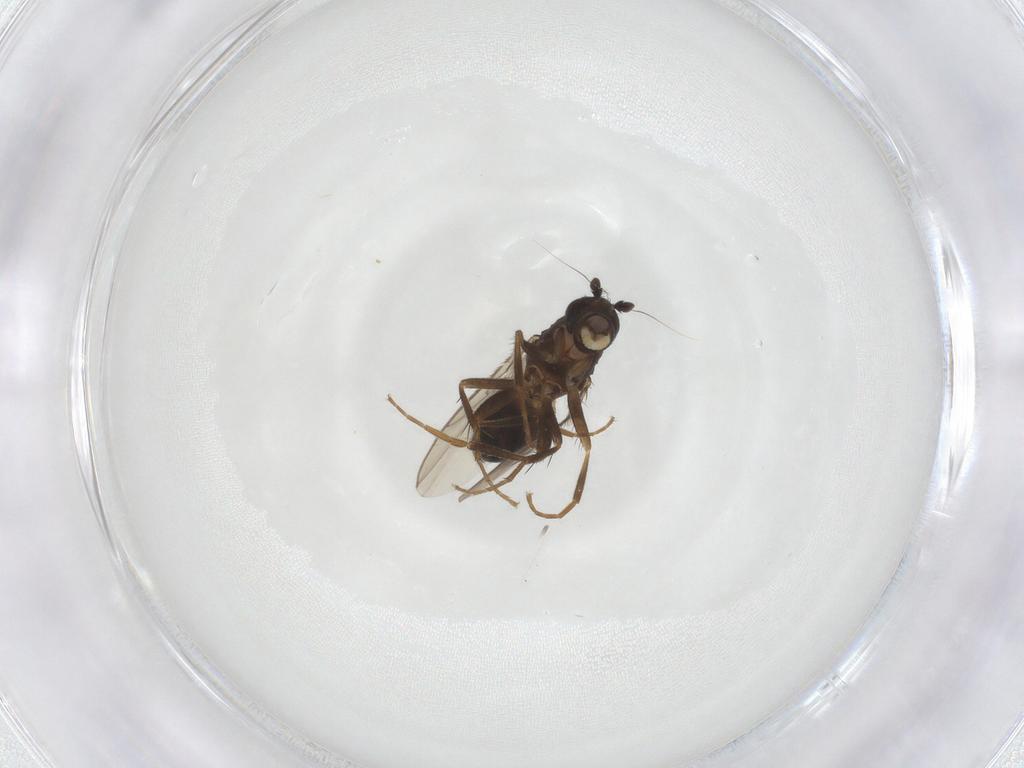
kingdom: Animalia
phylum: Arthropoda
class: Insecta
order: Diptera
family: Sphaeroceridae
